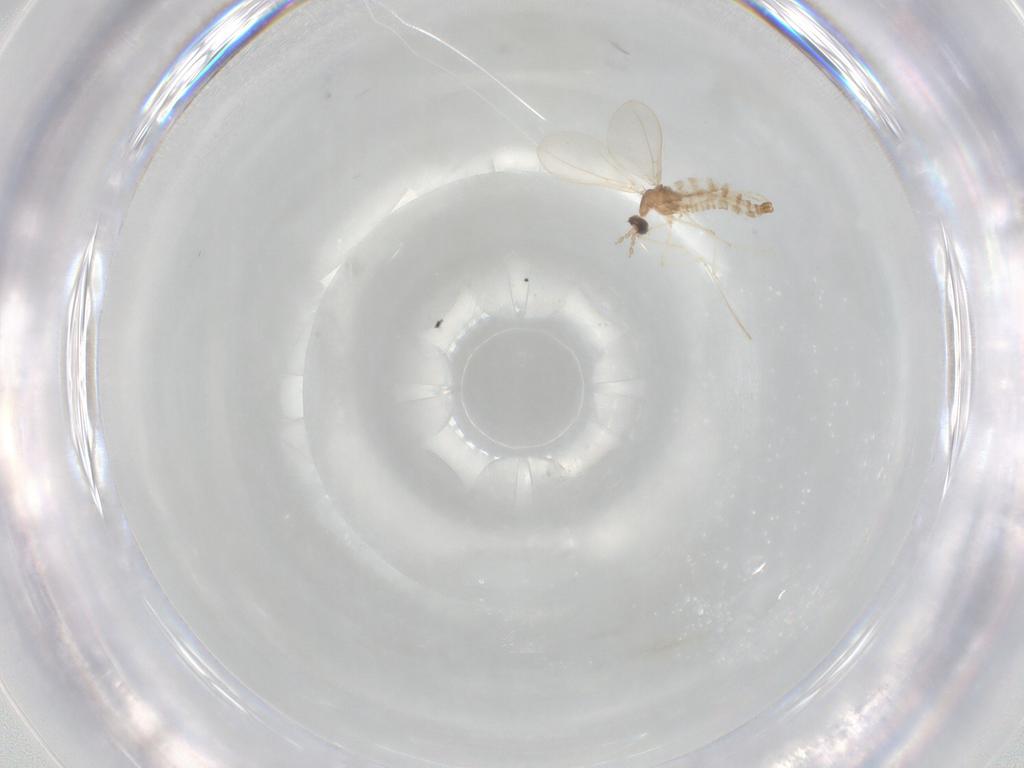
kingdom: Animalia
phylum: Arthropoda
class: Insecta
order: Diptera
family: Cecidomyiidae
